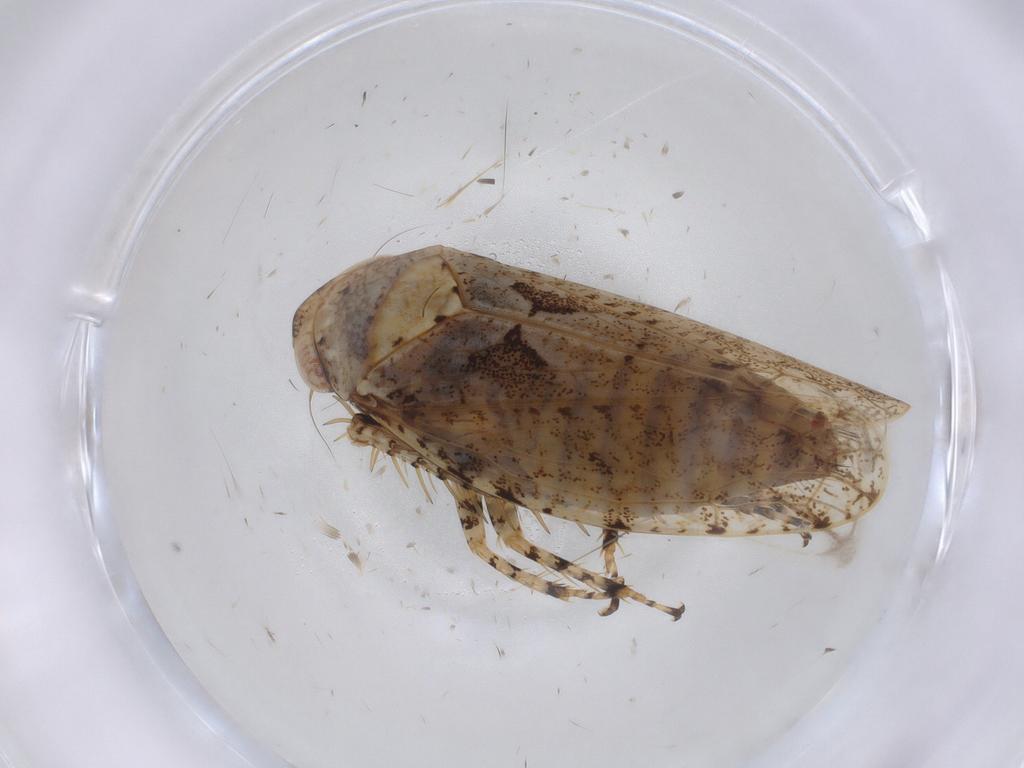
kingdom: Animalia
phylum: Arthropoda
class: Insecta
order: Hemiptera
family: Cicadellidae
